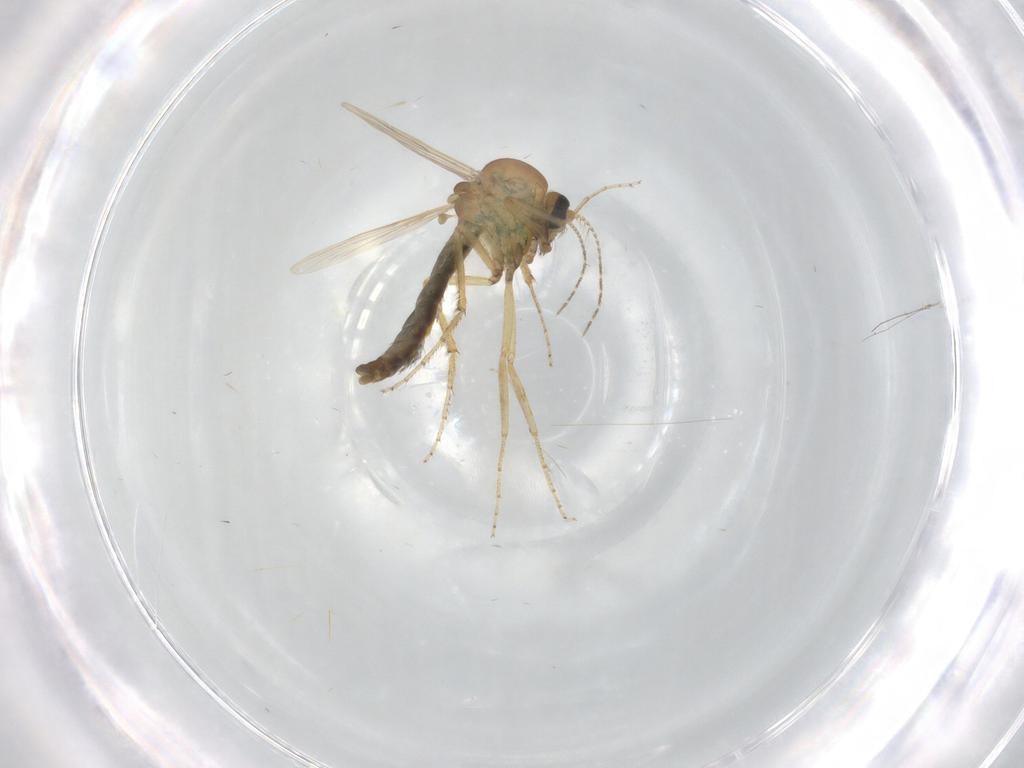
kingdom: Animalia
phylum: Arthropoda
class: Insecta
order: Diptera
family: Ceratopogonidae
